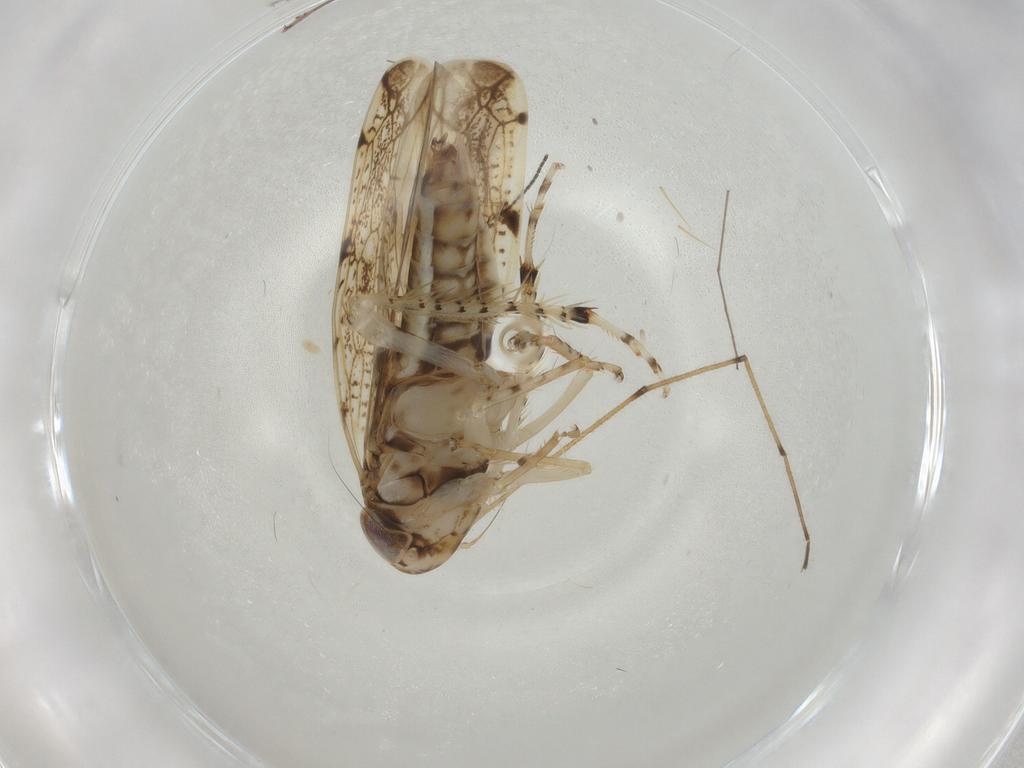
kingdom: Animalia
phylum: Arthropoda
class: Insecta
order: Hemiptera
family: Cicadellidae
